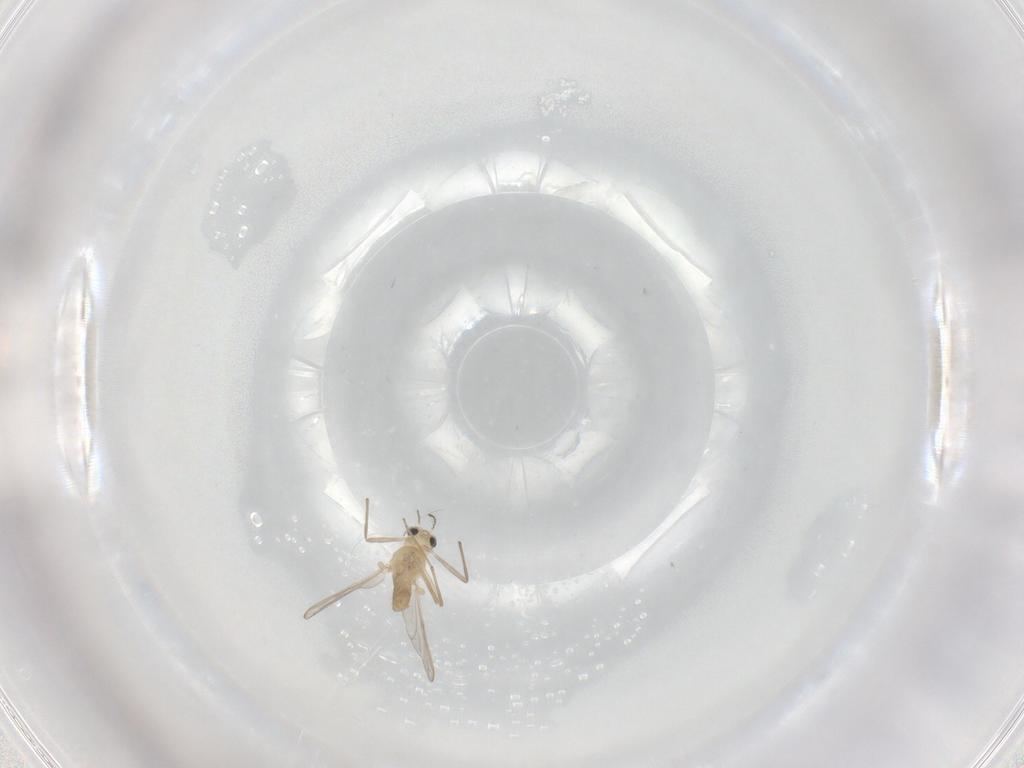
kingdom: Animalia
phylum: Arthropoda
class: Insecta
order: Diptera
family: Chironomidae
